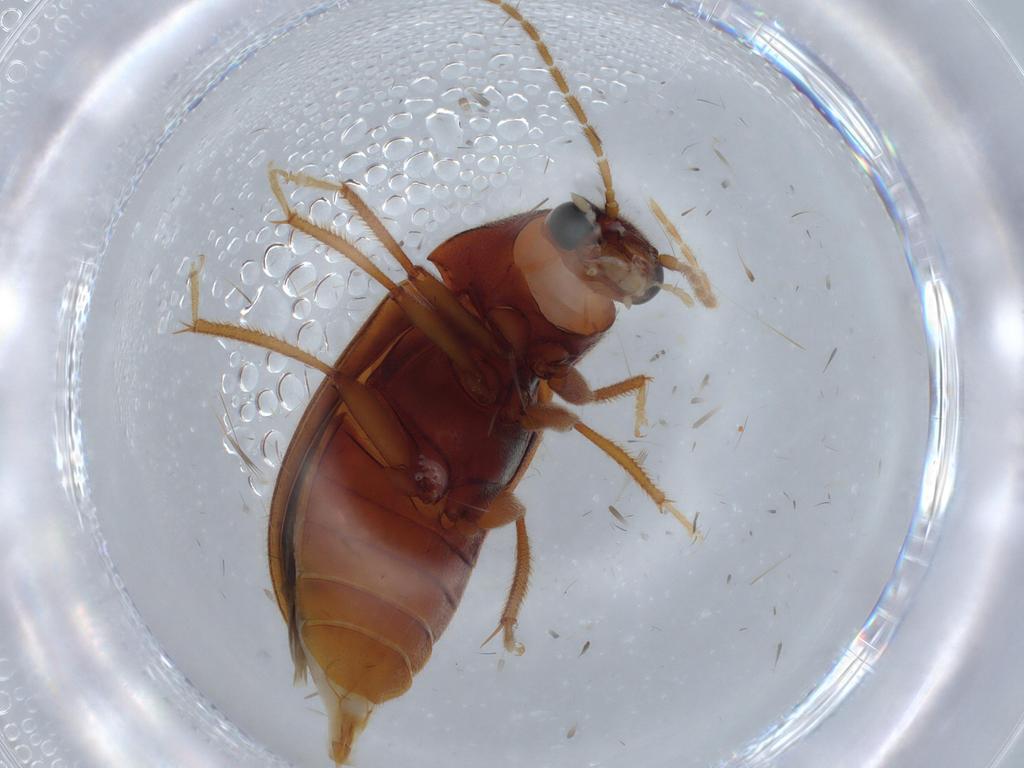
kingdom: Animalia
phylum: Arthropoda
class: Insecta
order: Coleoptera
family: Ptilodactylidae
